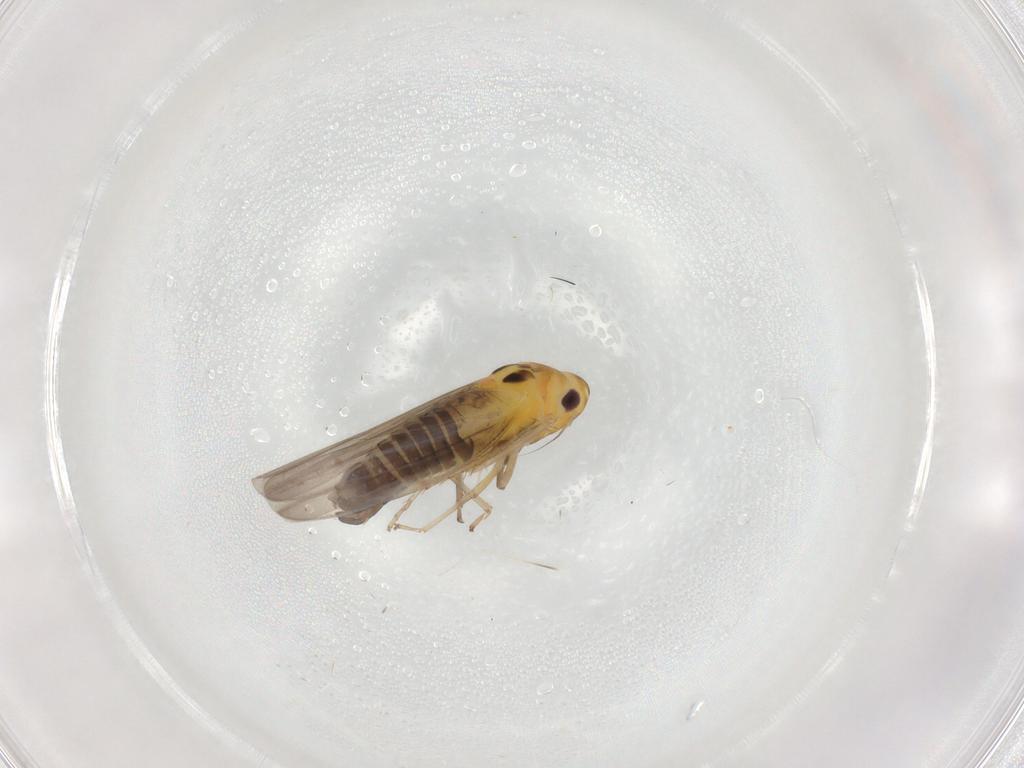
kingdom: Animalia
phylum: Arthropoda
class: Insecta
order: Hemiptera
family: Cicadellidae
